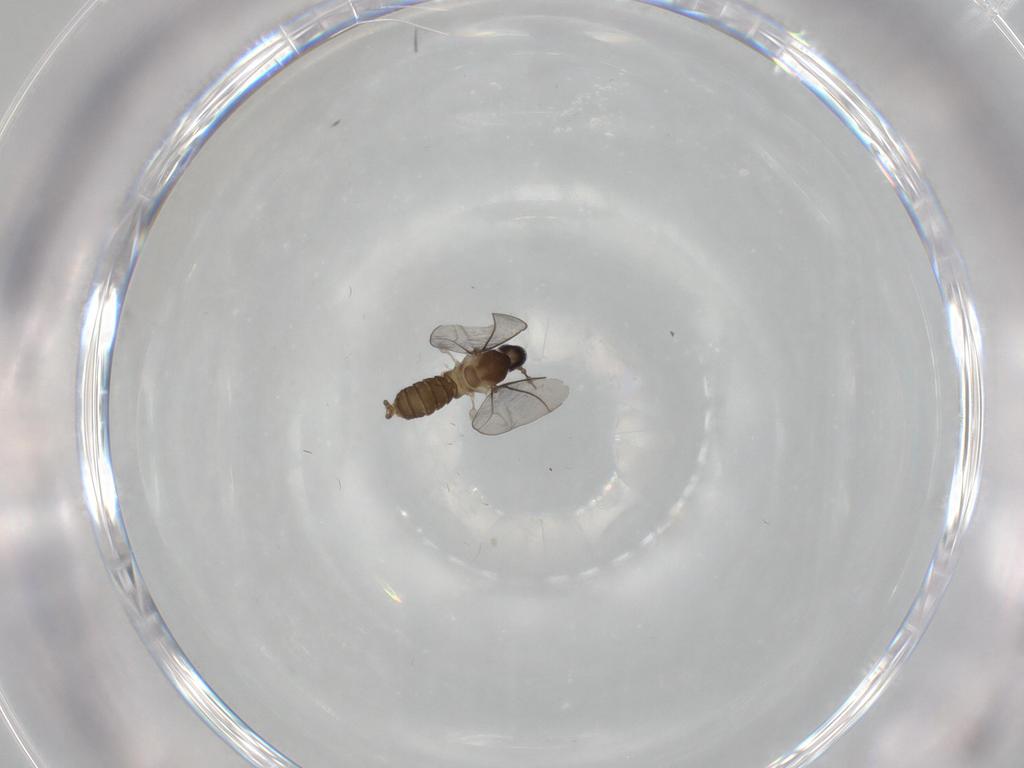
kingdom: Animalia
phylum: Arthropoda
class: Insecta
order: Diptera
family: Cecidomyiidae
